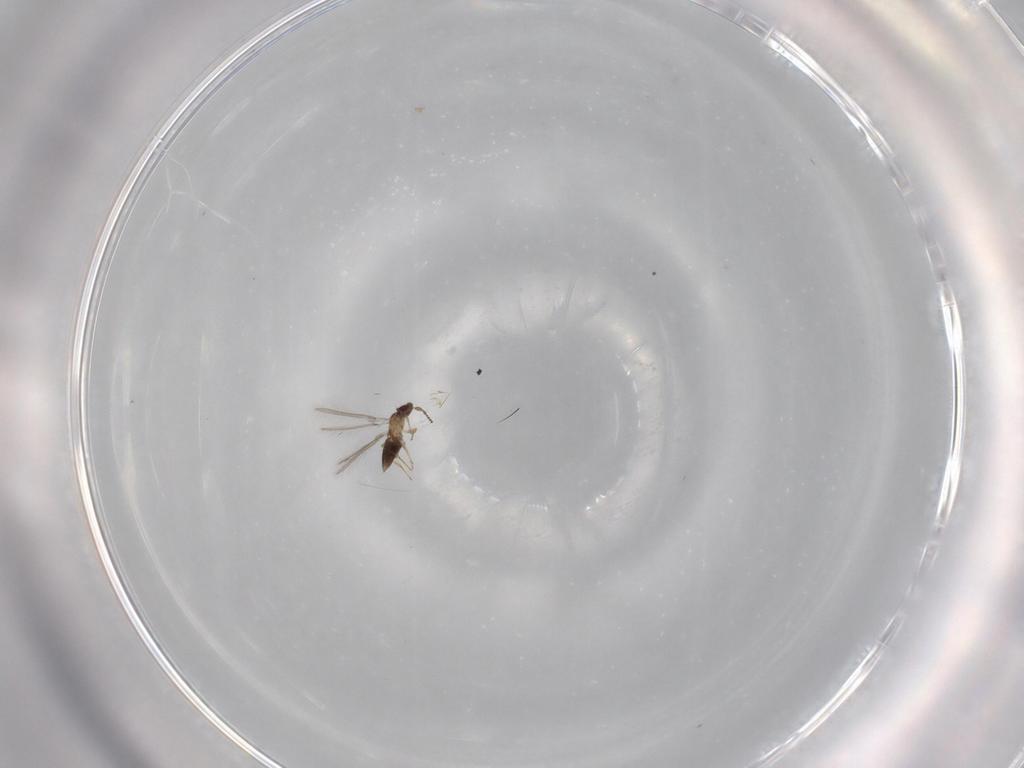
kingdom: Animalia
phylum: Arthropoda
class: Insecta
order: Hymenoptera
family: Mymaridae
